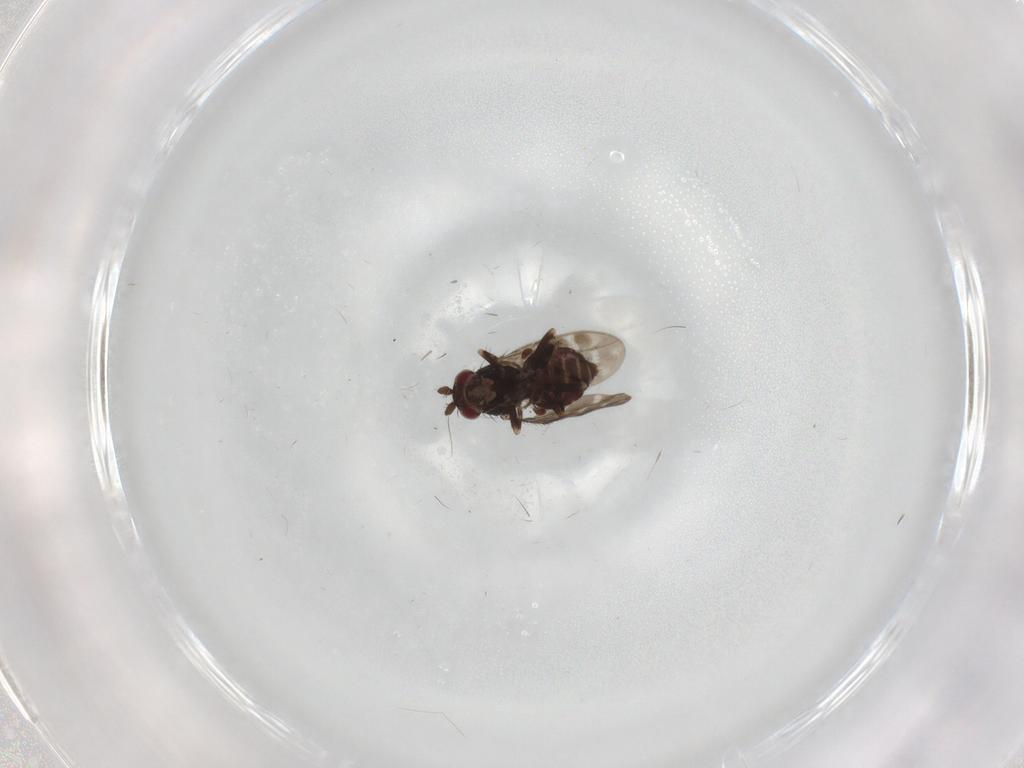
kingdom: Animalia
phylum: Arthropoda
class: Insecta
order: Diptera
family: Sphaeroceridae
